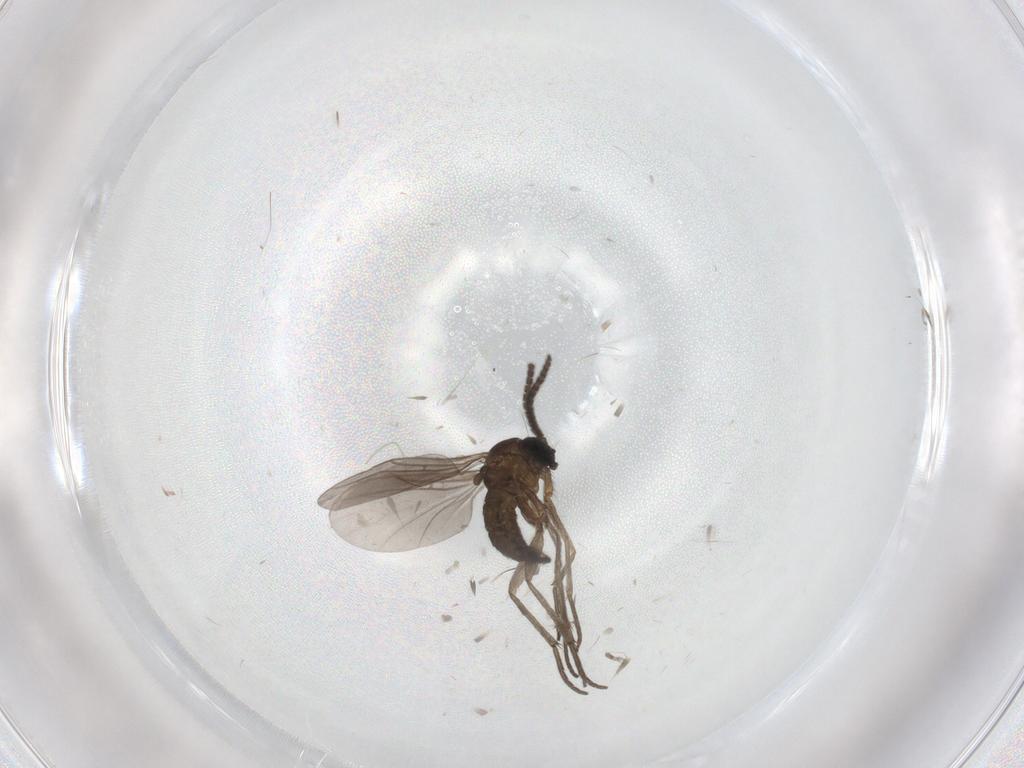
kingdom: Animalia
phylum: Arthropoda
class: Insecta
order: Diptera
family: Sciaridae
